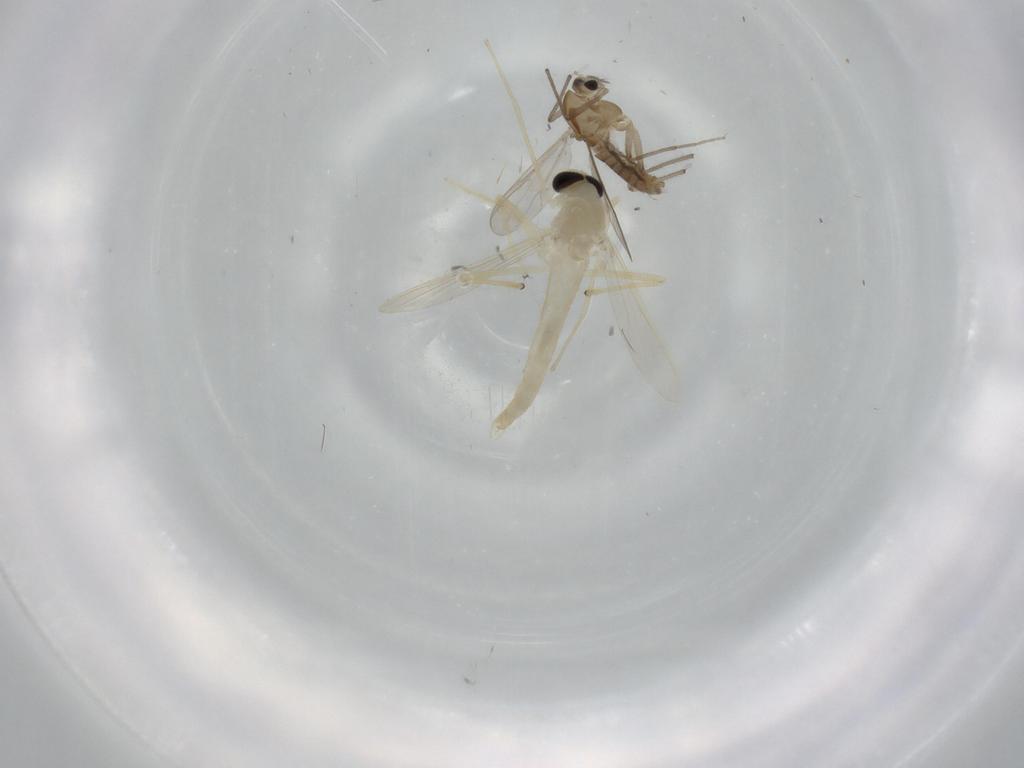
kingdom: Animalia
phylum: Arthropoda
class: Insecta
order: Diptera
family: Chironomidae
